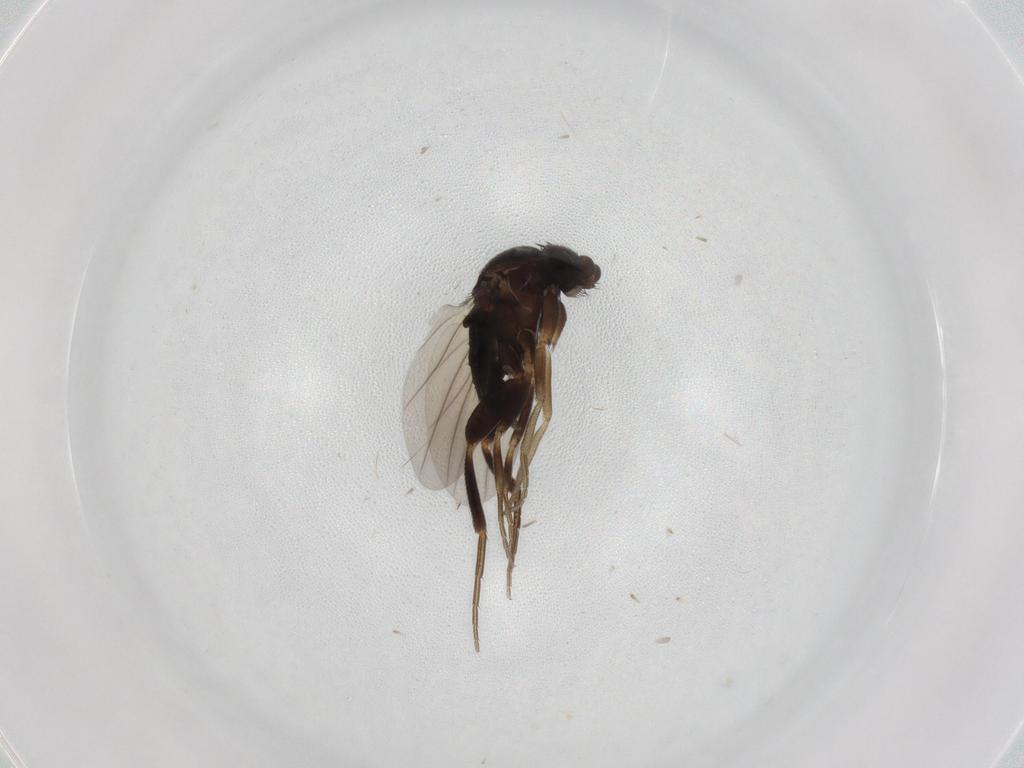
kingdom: Animalia
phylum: Arthropoda
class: Insecta
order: Diptera
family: Phoridae
